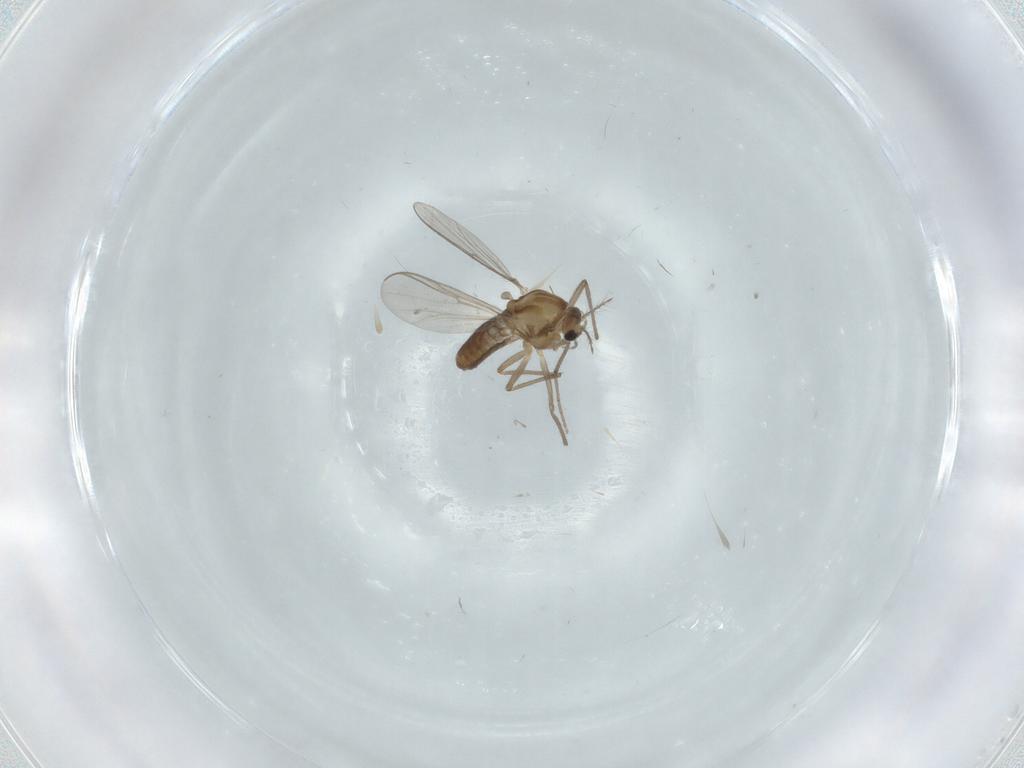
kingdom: Animalia
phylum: Arthropoda
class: Insecta
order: Diptera
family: Chironomidae
